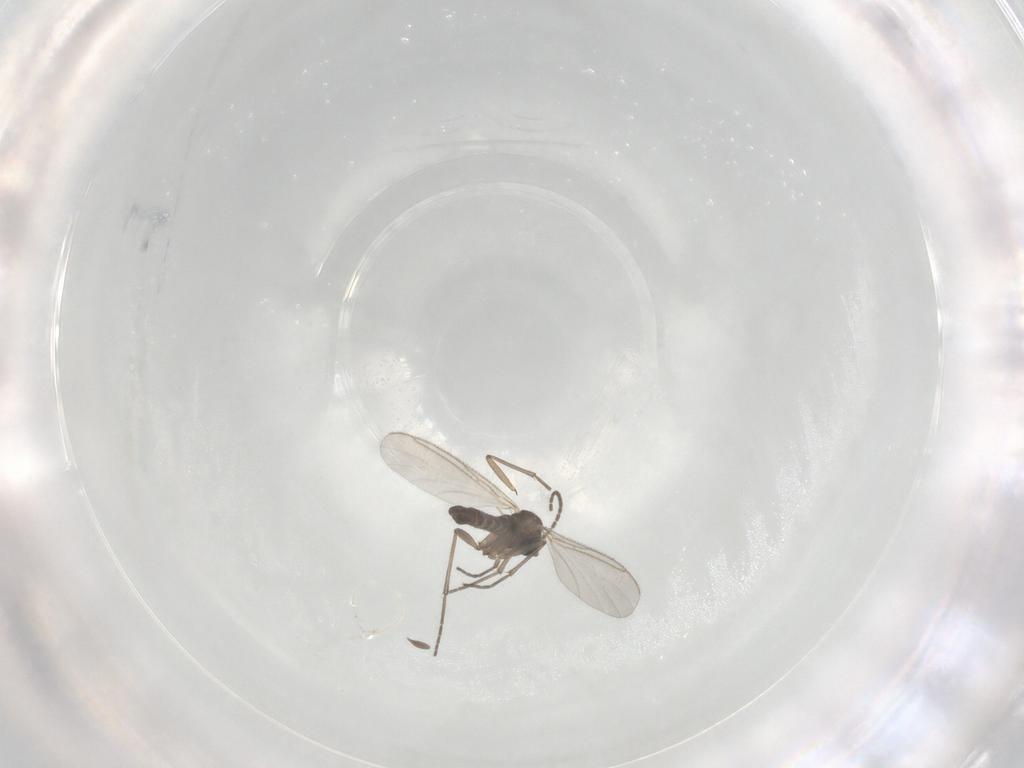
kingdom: Animalia
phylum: Arthropoda
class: Insecta
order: Diptera
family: Sciaridae
